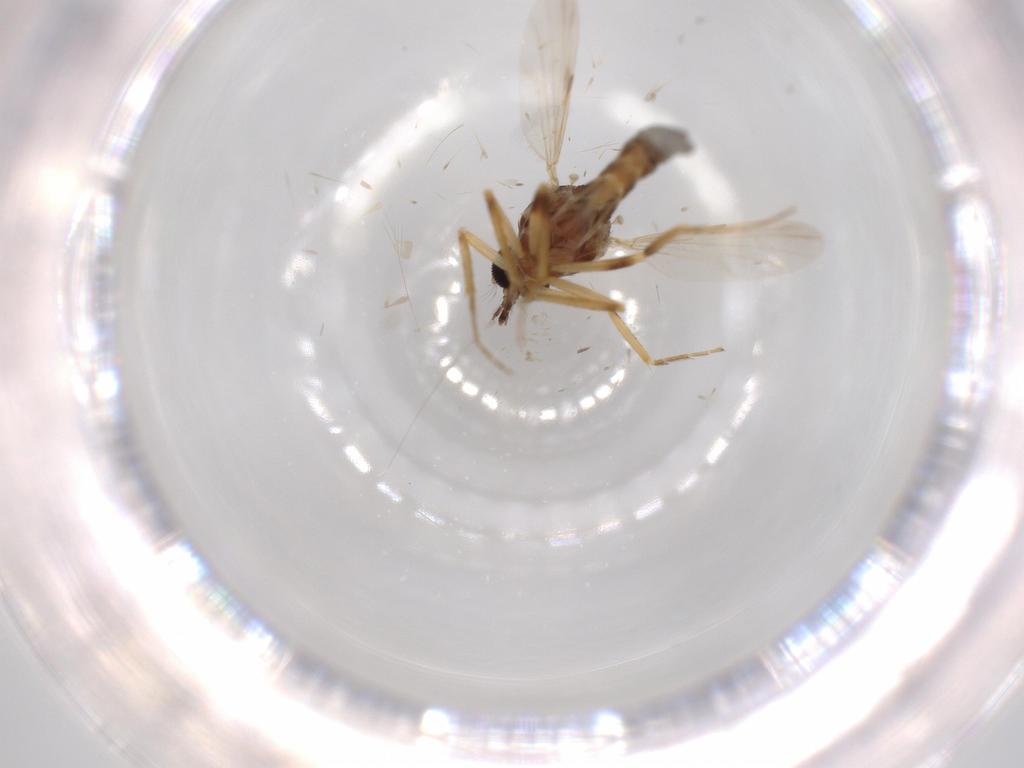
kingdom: Animalia
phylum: Arthropoda
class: Insecta
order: Diptera
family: Ceratopogonidae
